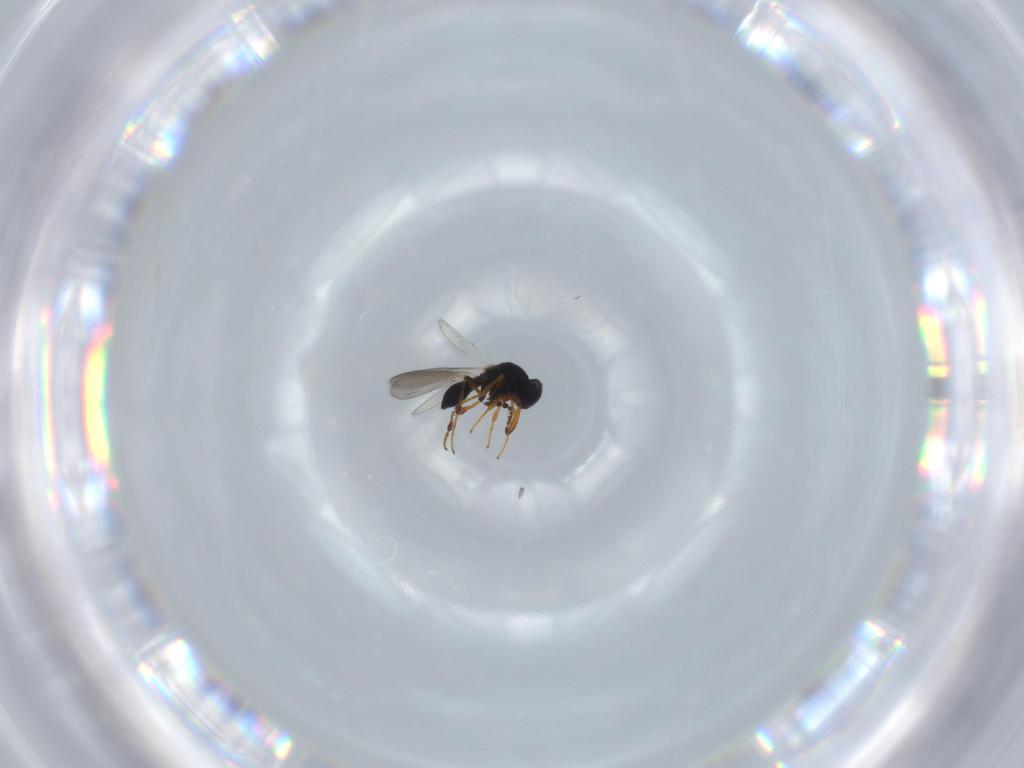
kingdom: Animalia
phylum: Arthropoda
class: Insecta
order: Hymenoptera
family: Platygastridae
